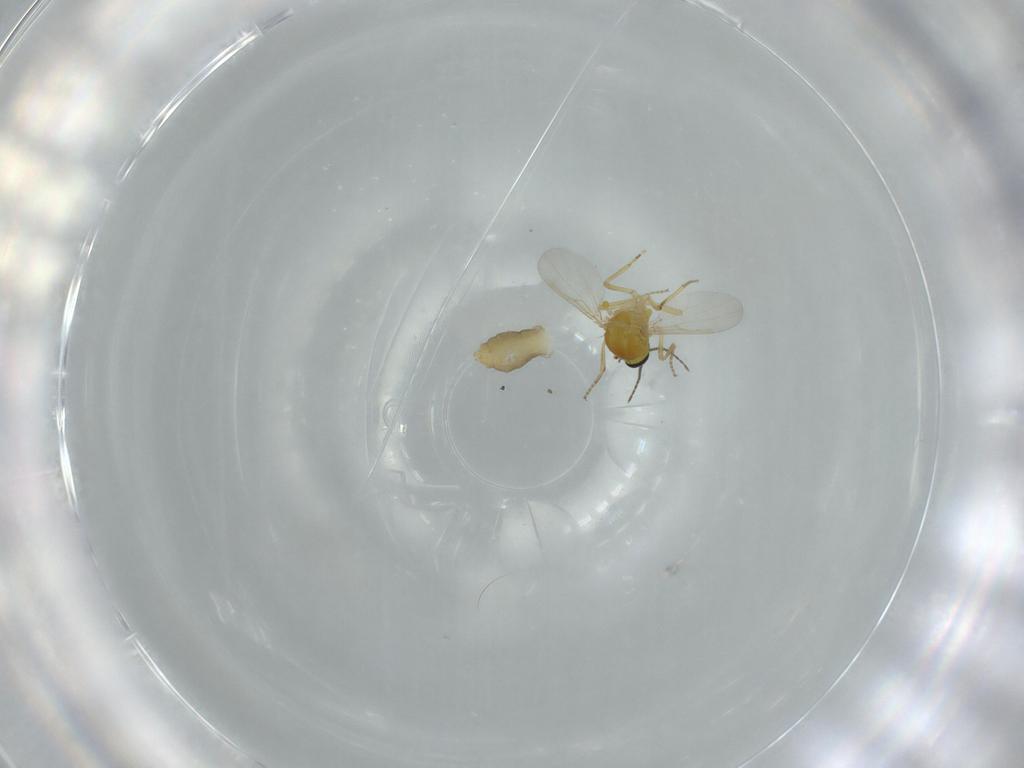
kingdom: Animalia
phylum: Arthropoda
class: Insecta
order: Diptera
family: Ceratopogonidae
